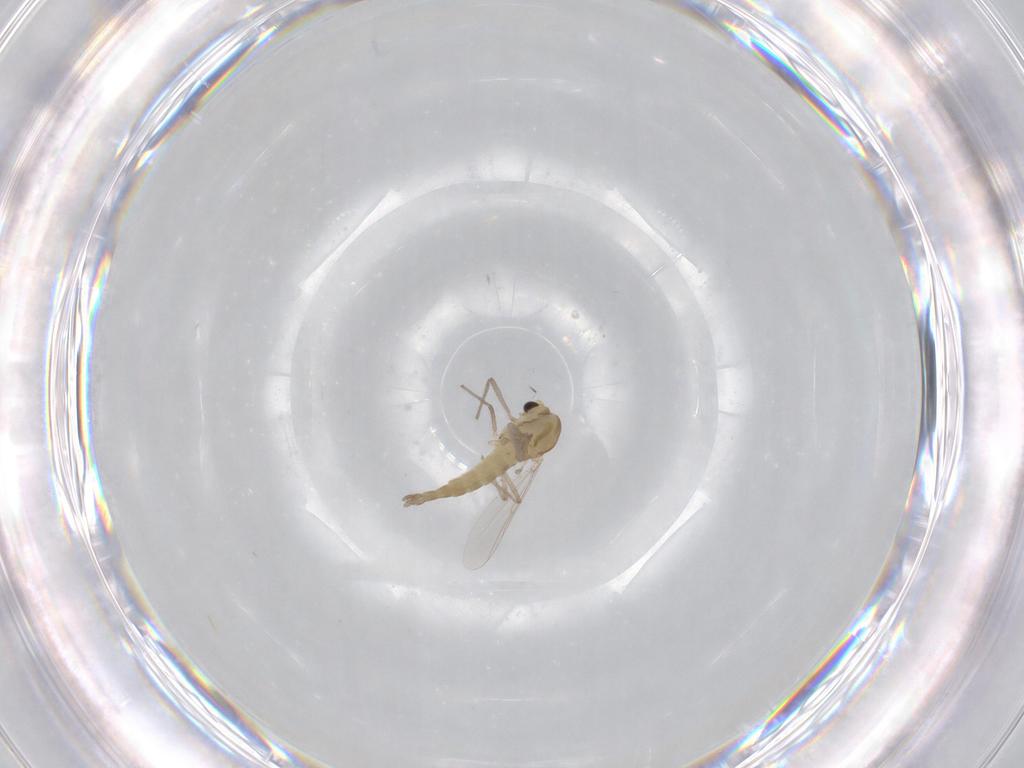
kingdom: Animalia
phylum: Arthropoda
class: Insecta
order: Diptera
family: Chironomidae
